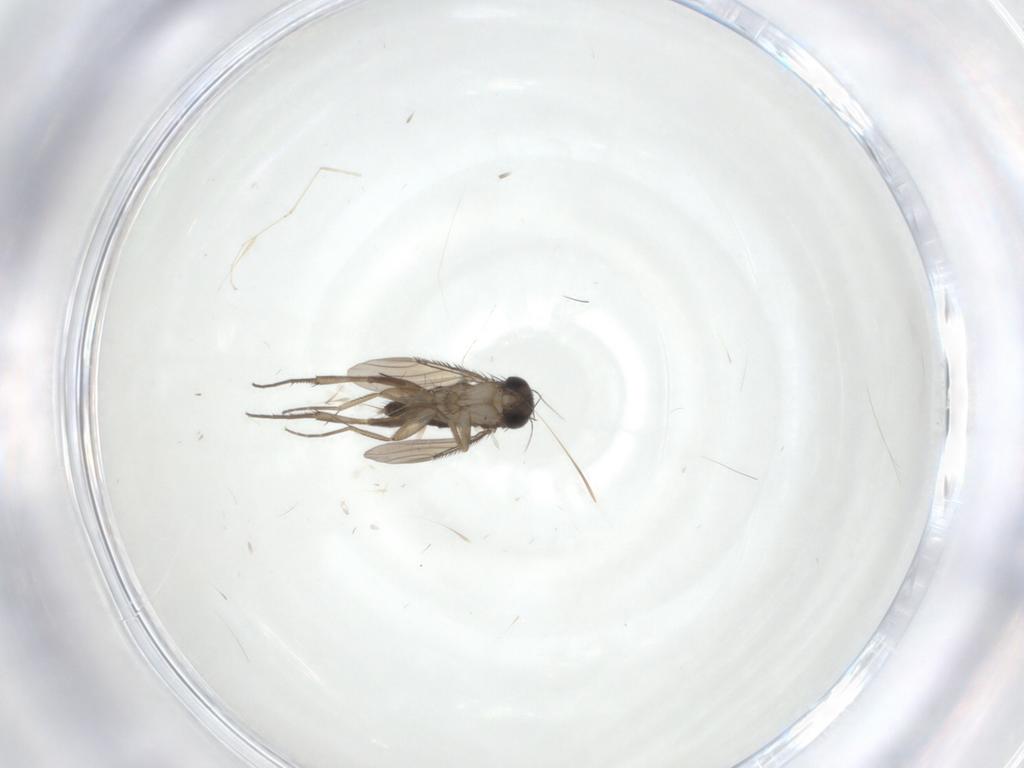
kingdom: Animalia
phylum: Arthropoda
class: Insecta
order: Diptera
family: Phoridae
